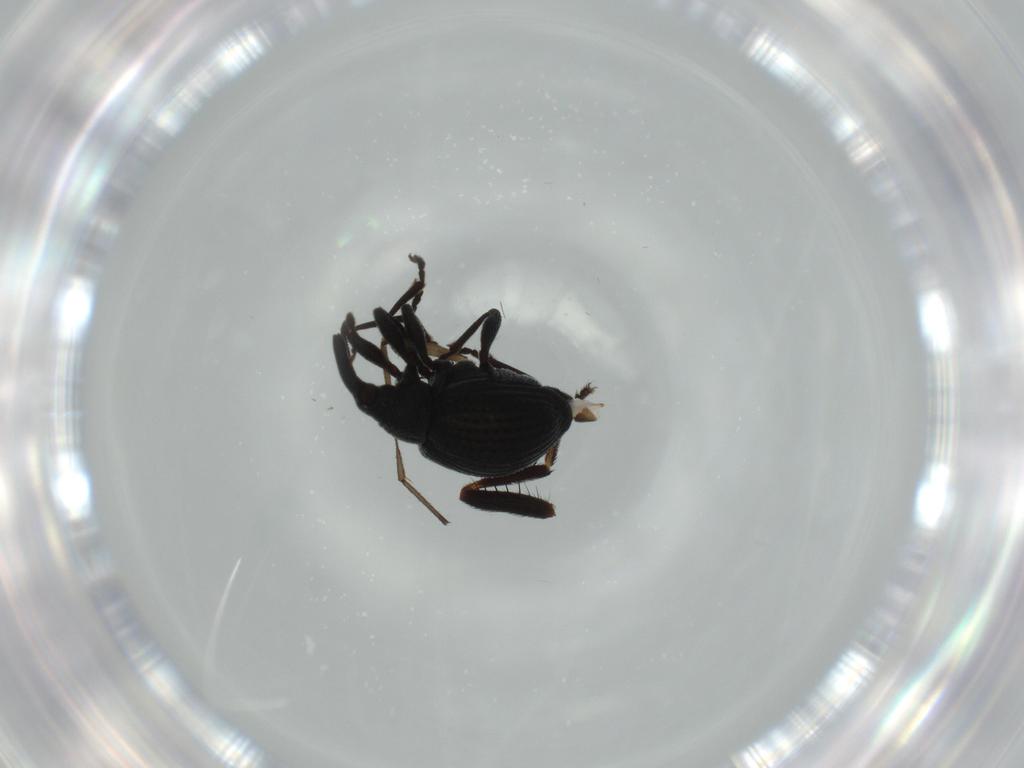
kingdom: Animalia
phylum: Arthropoda
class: Insecta
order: Coleoptera
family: Brentidae
